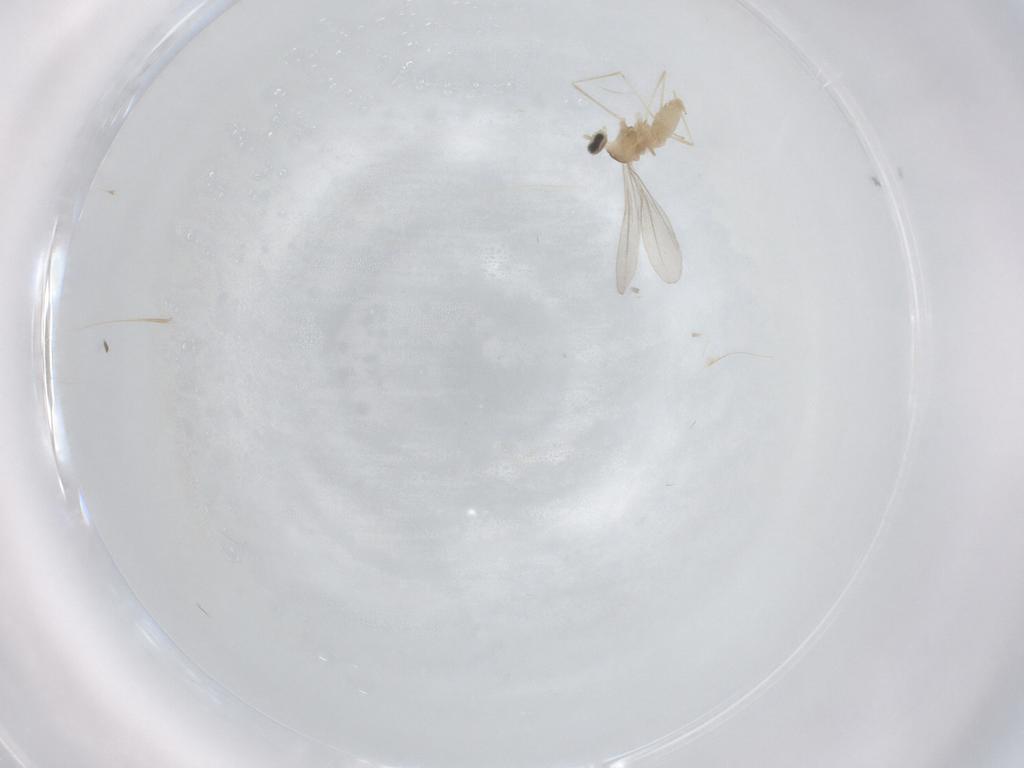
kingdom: Animalia
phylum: Arthropoda
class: Insecta
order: Diptera
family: Cecidomyiidae
